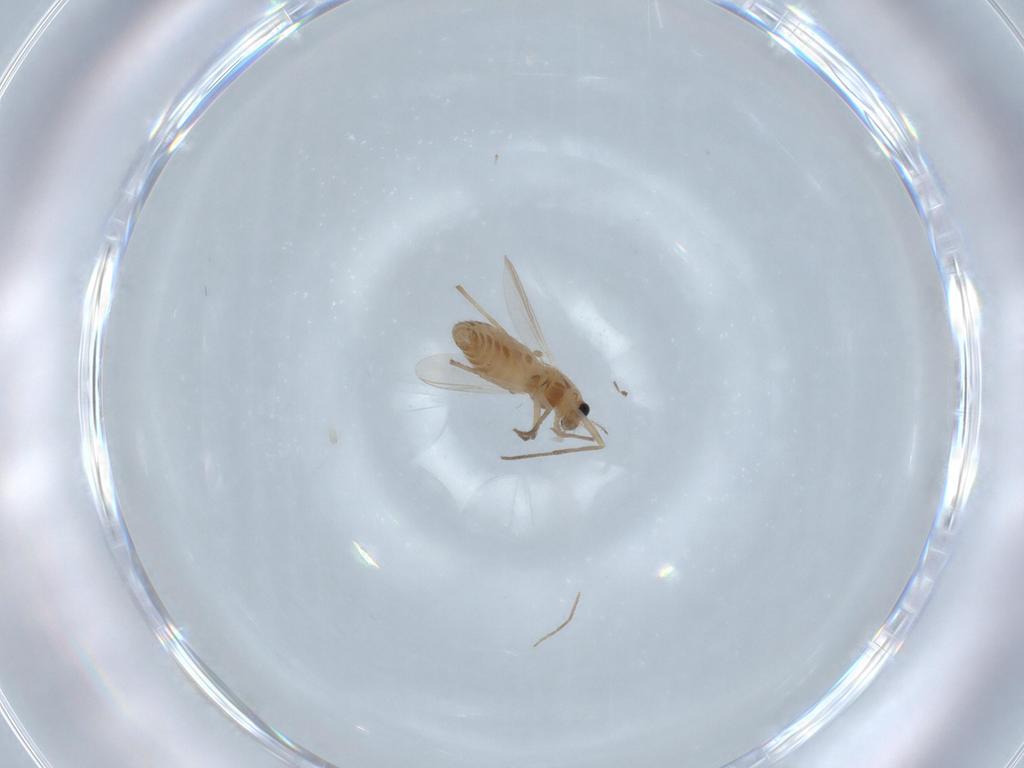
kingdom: Animalia
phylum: Arthropoda
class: Insecta
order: Diptera
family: Chironomidae
